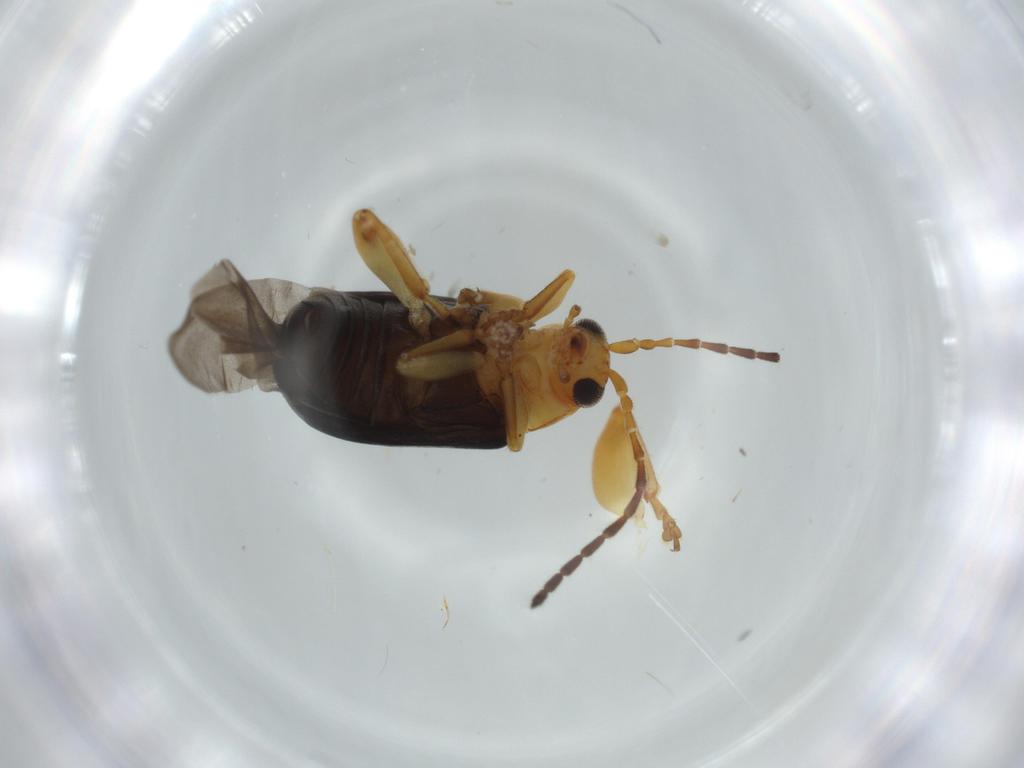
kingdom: Animalia
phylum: Arthropoda
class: Insecta
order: Coleoptera
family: Chrysomelidae
